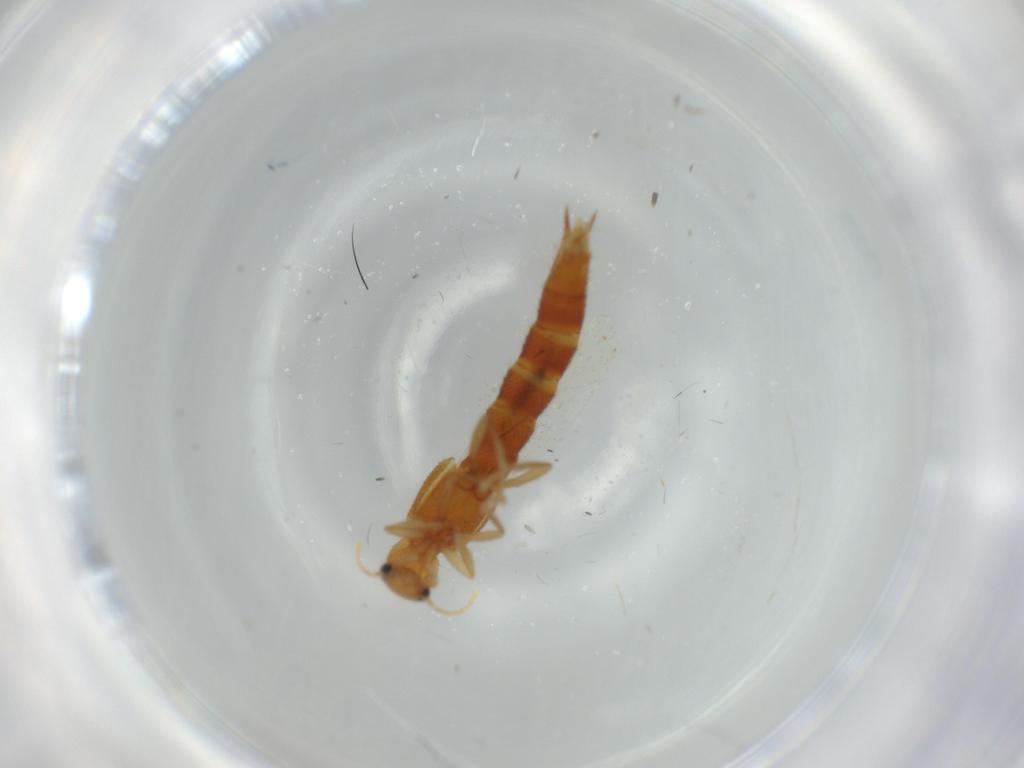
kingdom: Animalia
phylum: Arthropoda
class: Insecta
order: Coleoptera
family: Staphylinidae
